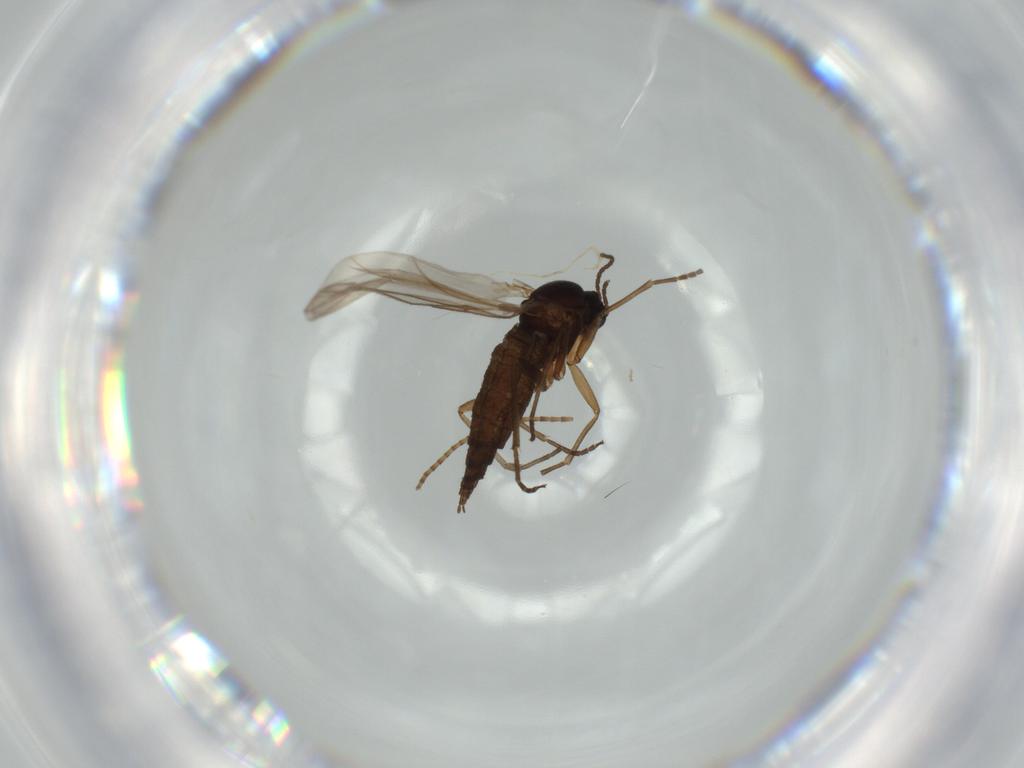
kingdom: Animalia
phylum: Arthropoda
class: Insecta
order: Diptera
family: Sciaridae
